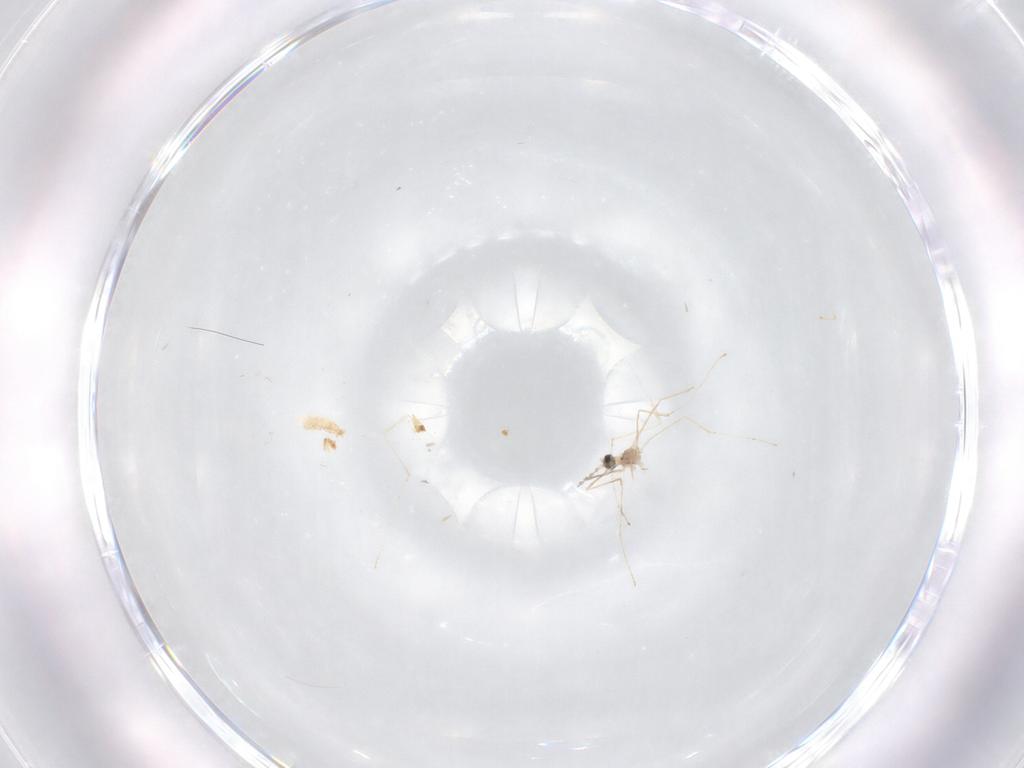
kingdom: Animalia
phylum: Arthropoda
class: Insecta
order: Diptera
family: Cecidomyiidae
